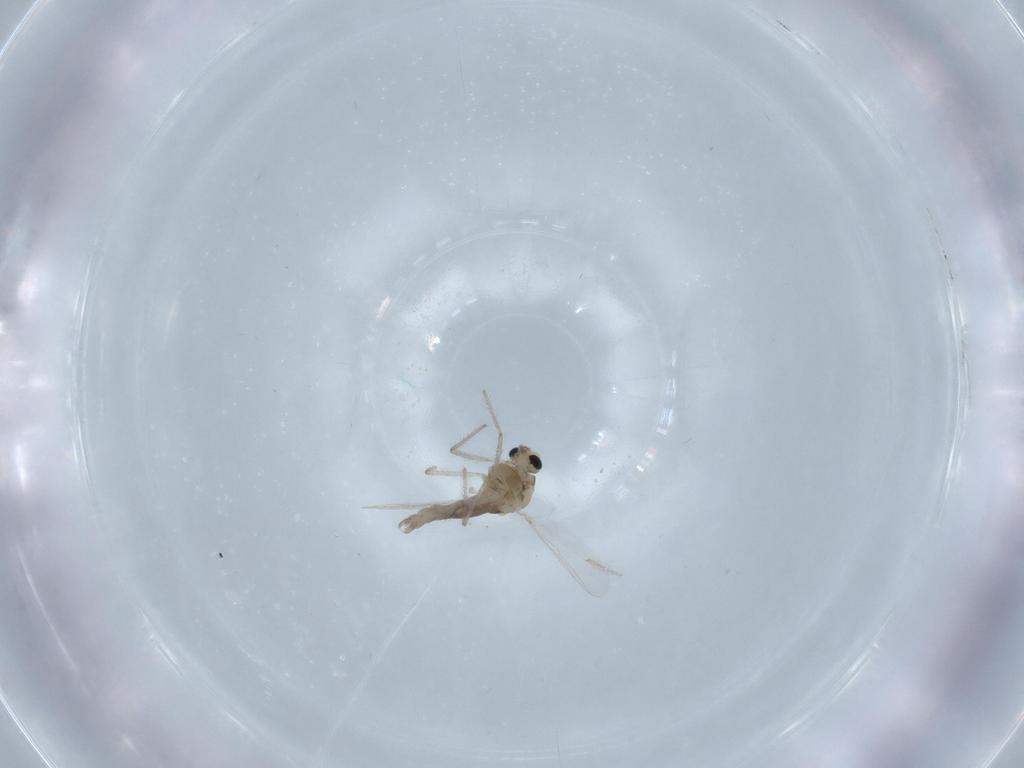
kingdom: Animalia
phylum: Arthropoda
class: Insecta
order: Diptera
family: Chironomidae
